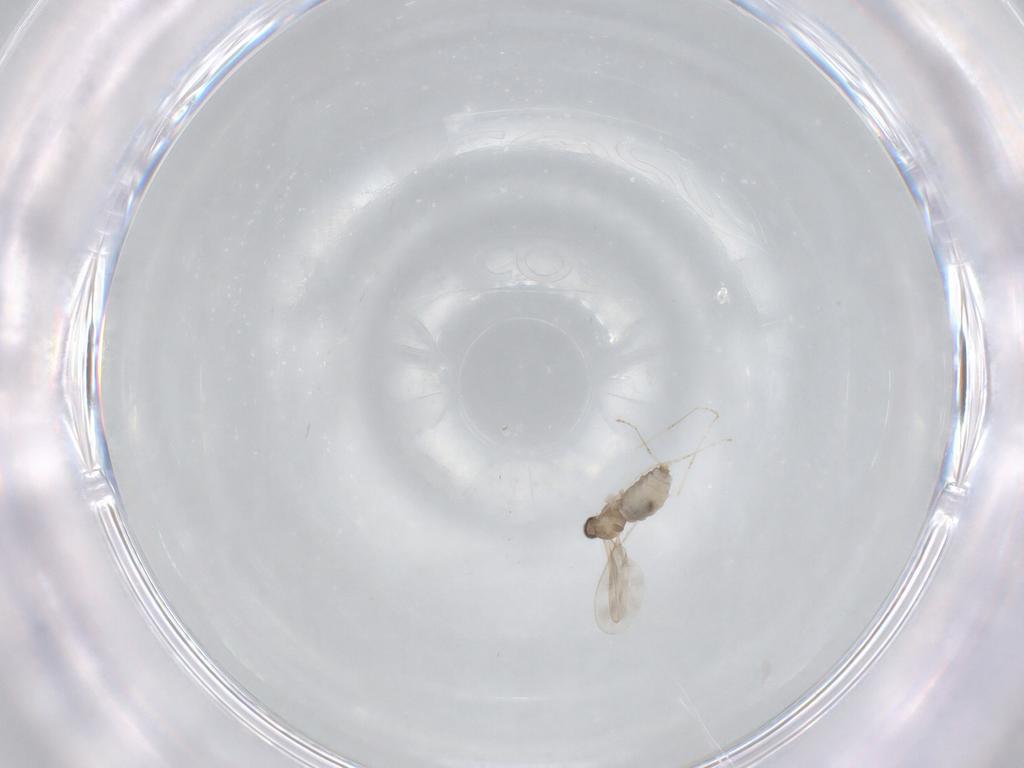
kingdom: Animalia
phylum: Arthropoda
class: Insecta
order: Diptera
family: Cecidomyiidae
